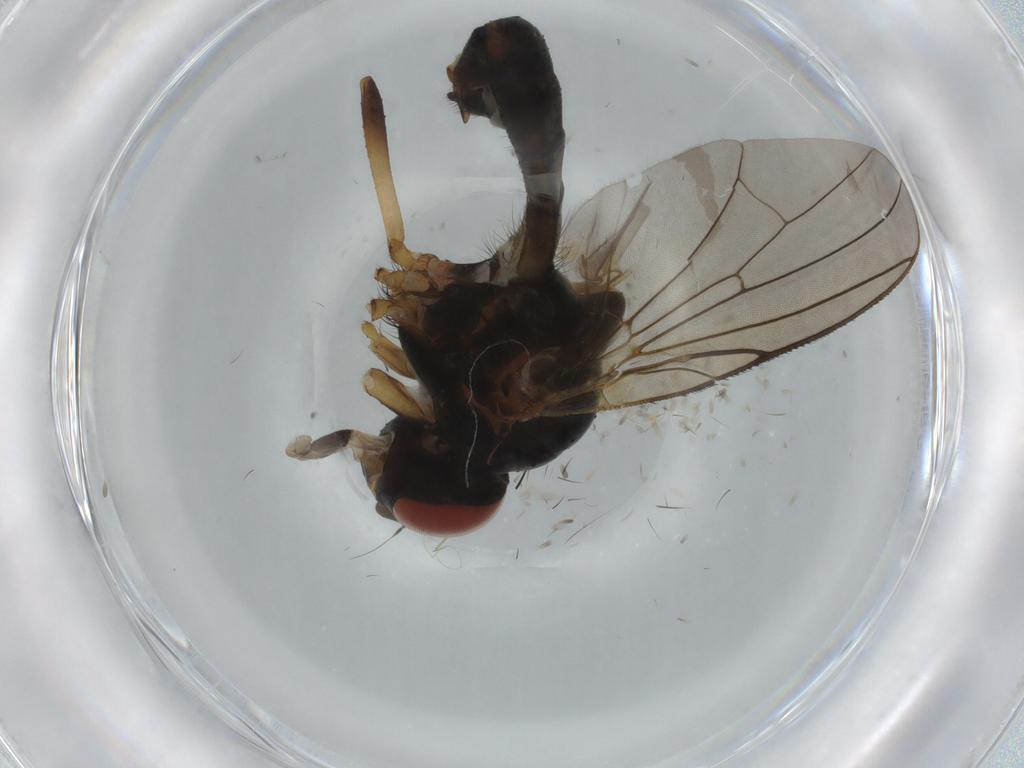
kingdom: Animalia
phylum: Arthropoda
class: Insecta
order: Diptera
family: Anthomyiidae
